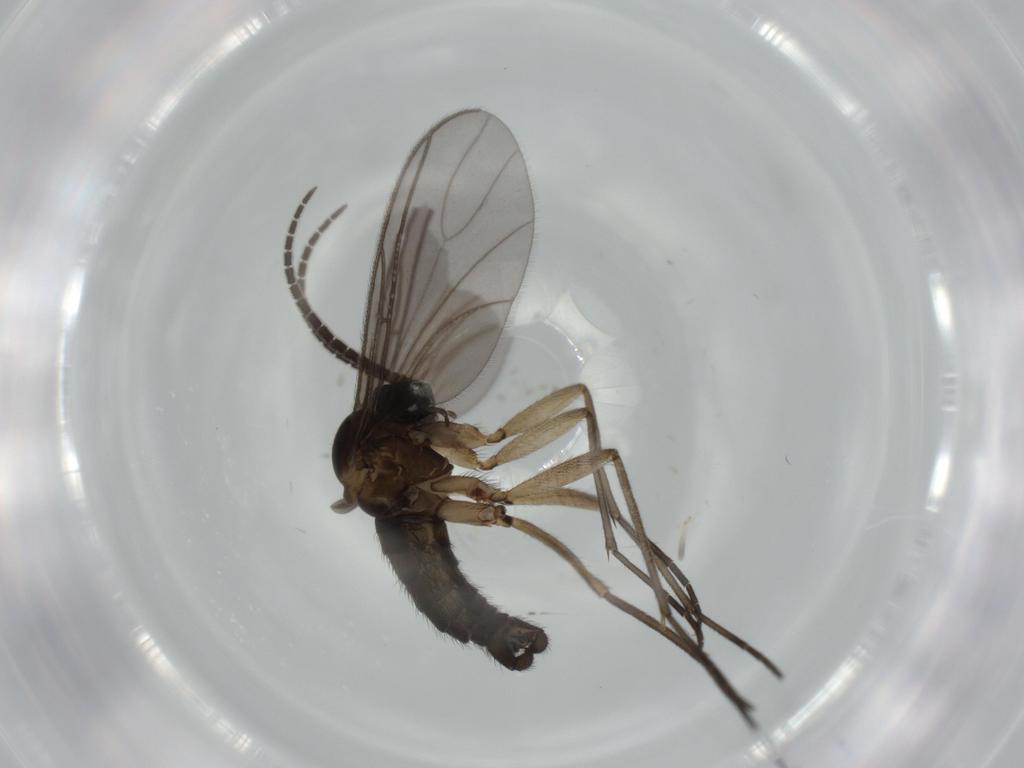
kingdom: Animalia
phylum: Arthropoda
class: Insecta
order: Diptera
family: Sciaridae
